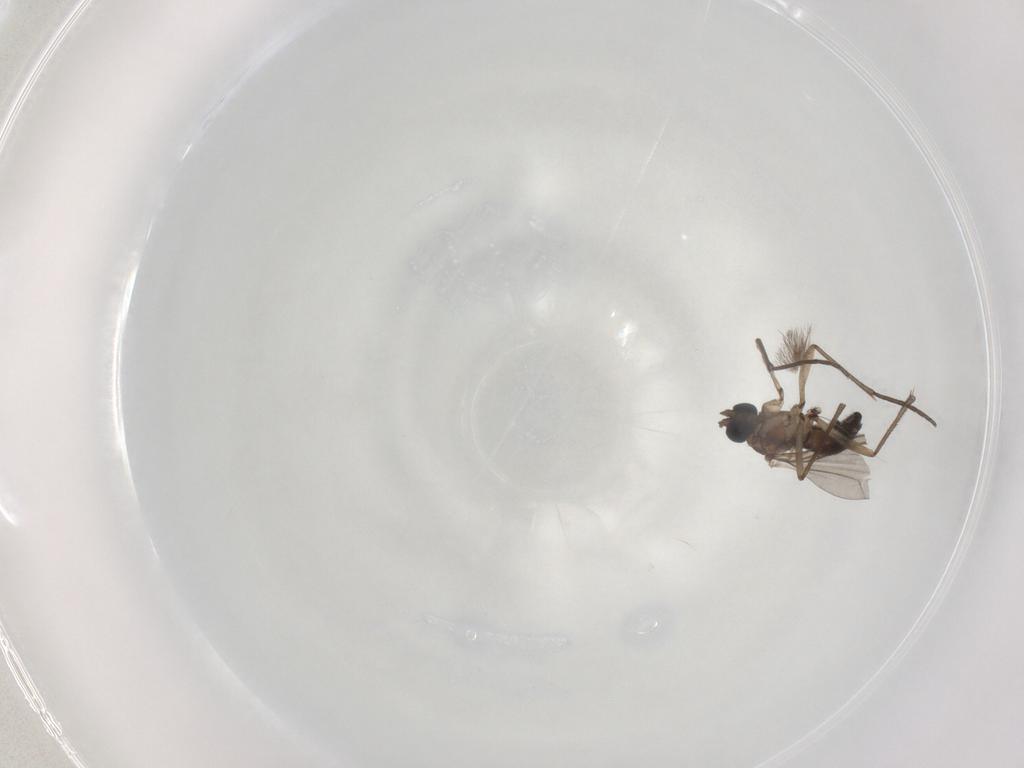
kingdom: Animalia
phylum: Arthropoda
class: Insecta
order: Diptera
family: Sciaridae
